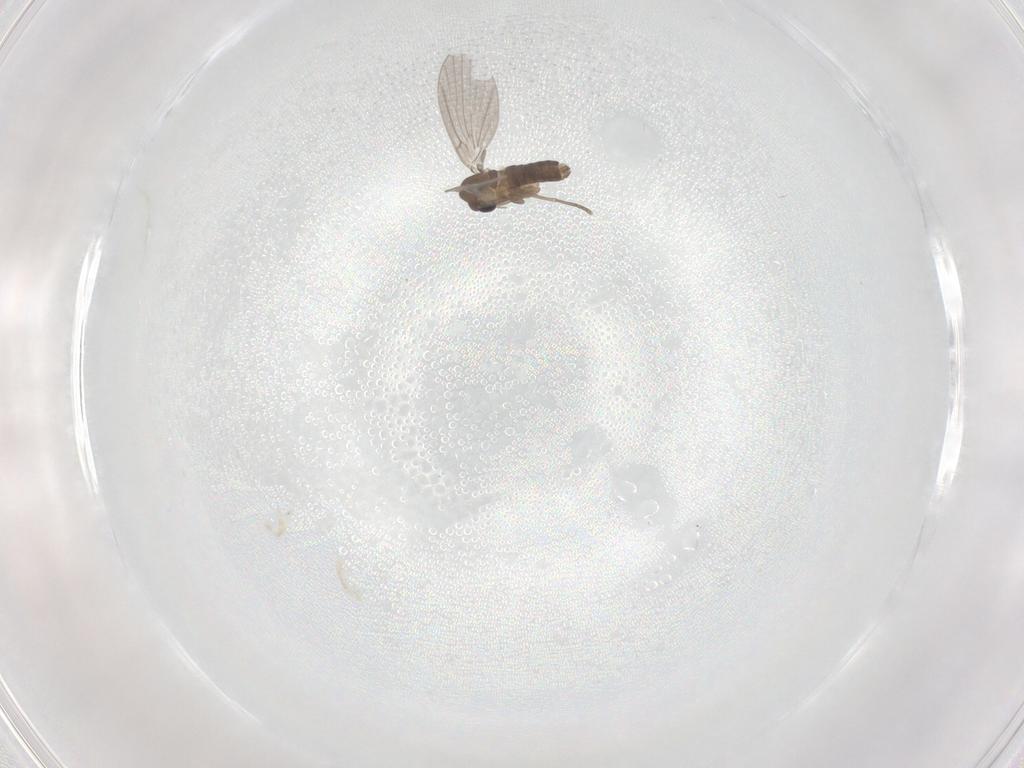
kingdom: Animalia
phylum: Arthropoda
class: Insecta
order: Diptera
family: Psychodidae
